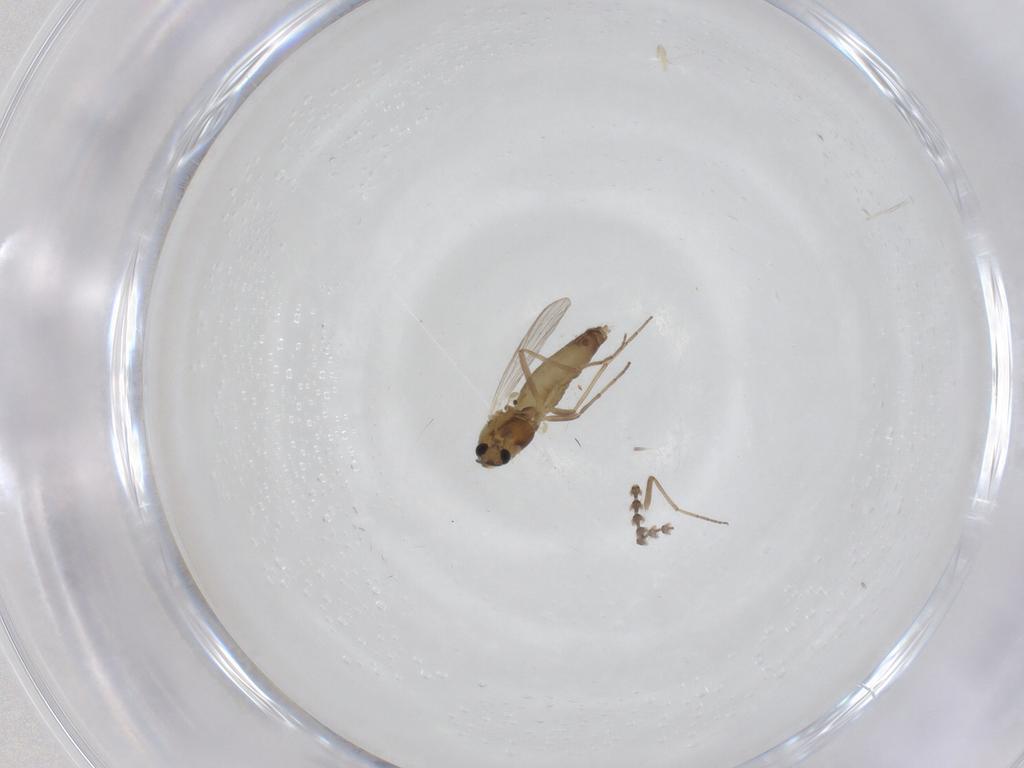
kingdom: Animalia
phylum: Arthropoda
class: Insecta
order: Diptera
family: Psychodidae
